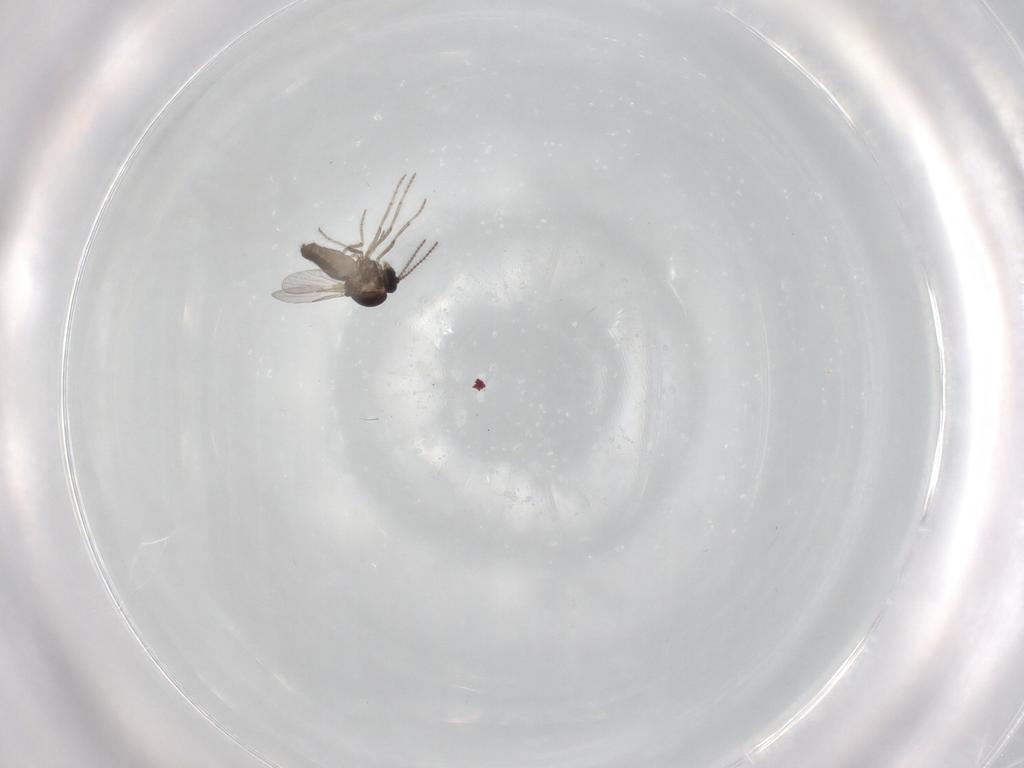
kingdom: Animalia
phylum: Arthropoda
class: Insecta
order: Diptera
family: Ceratopogonidae
